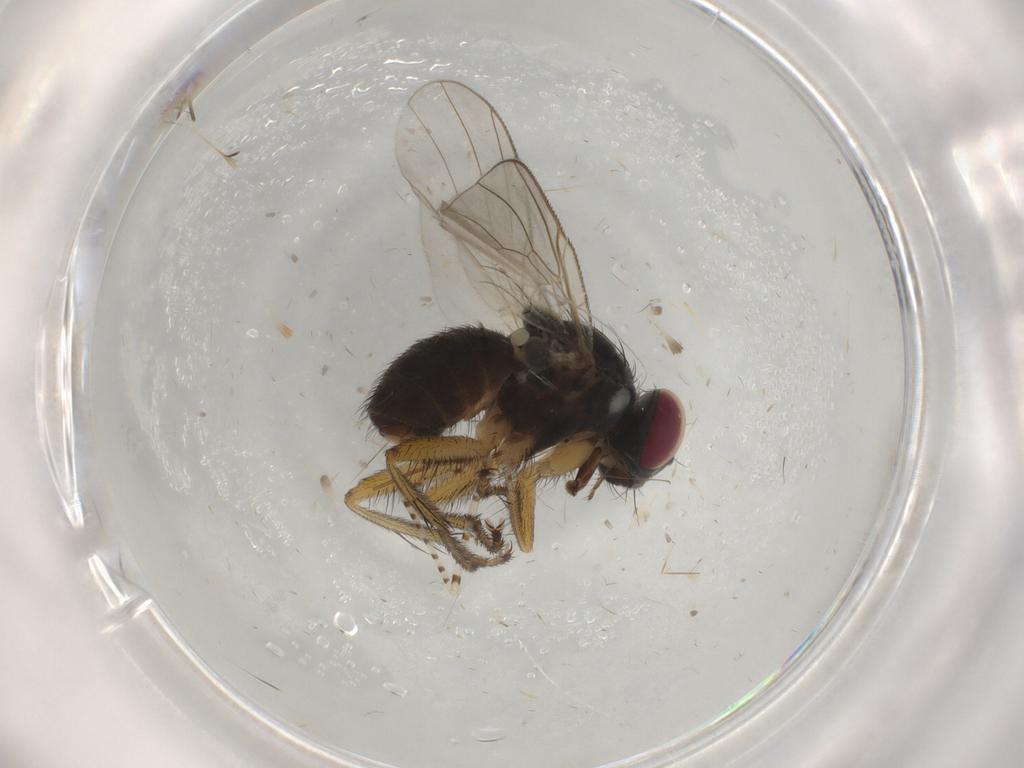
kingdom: Animalia
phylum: Arthropoda
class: Insecta
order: Diptera
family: Muscidae
